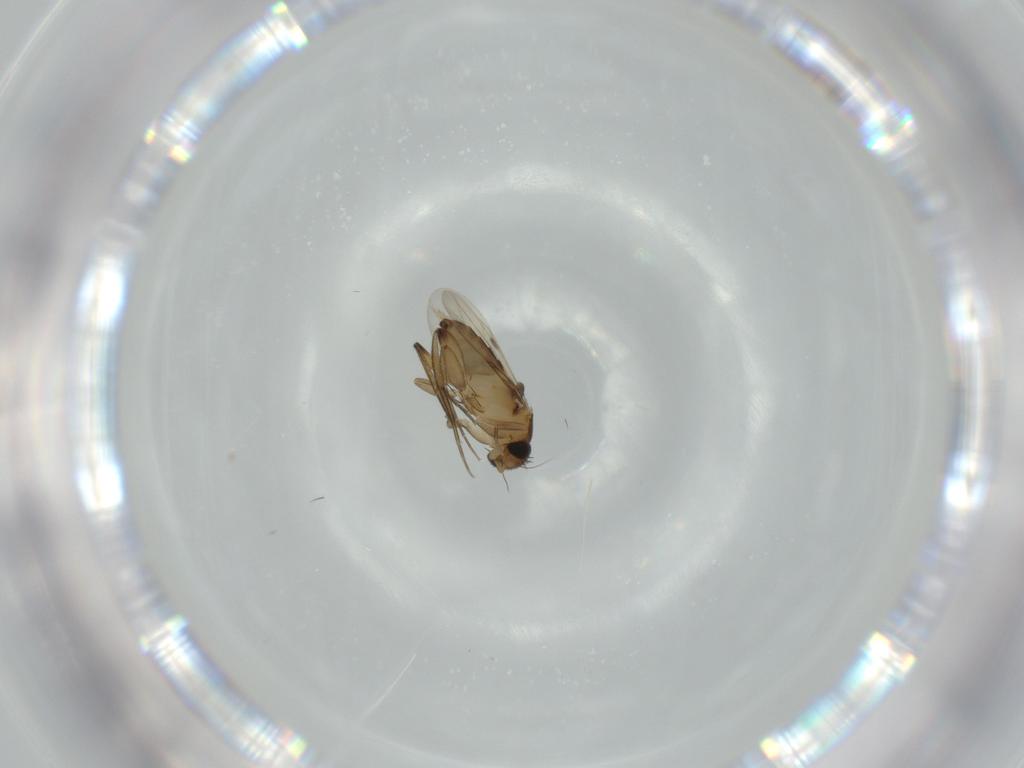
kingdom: Animalia
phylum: Arthropoda
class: Insecta
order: Diptera
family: Phoridae
